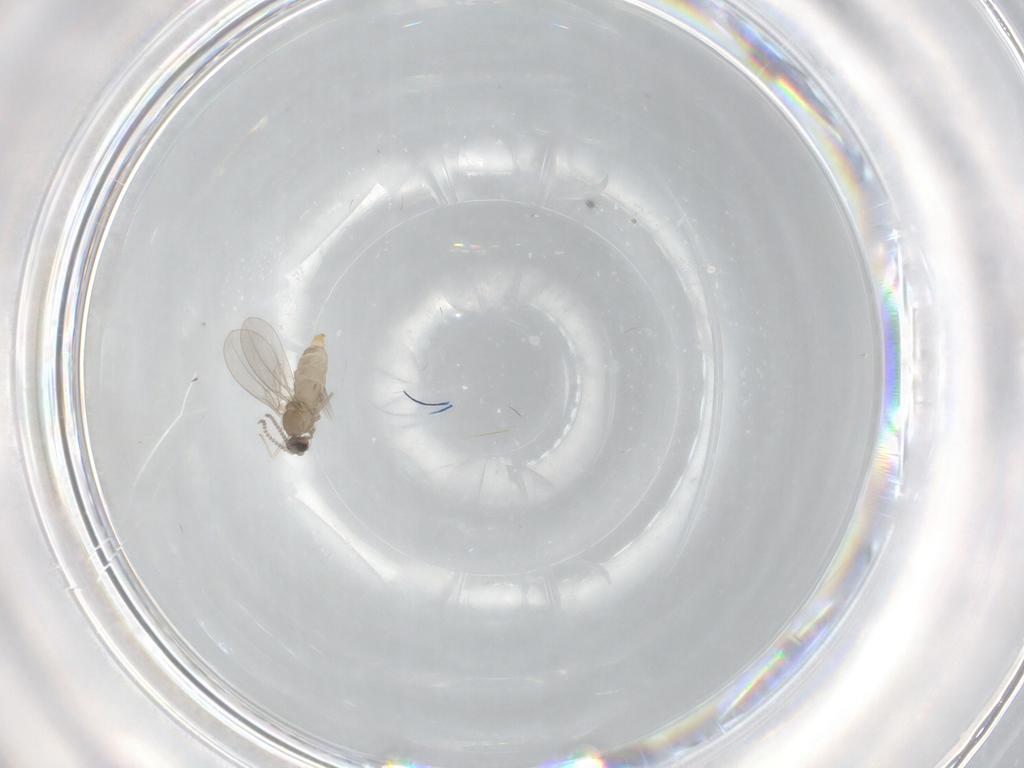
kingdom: Animalia
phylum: Arthropoda
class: Insecta
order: Diptera
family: Cecidomyiidae
